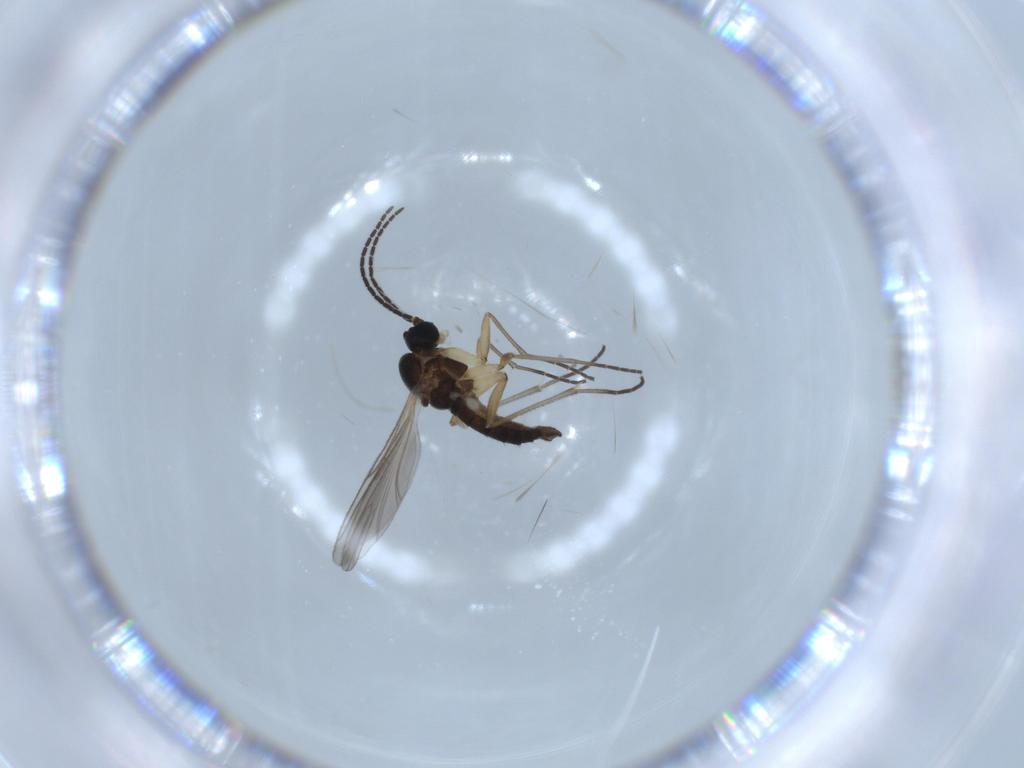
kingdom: Animalia
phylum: Arthropoda
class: Insecta
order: Diptera
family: Sciaridae
